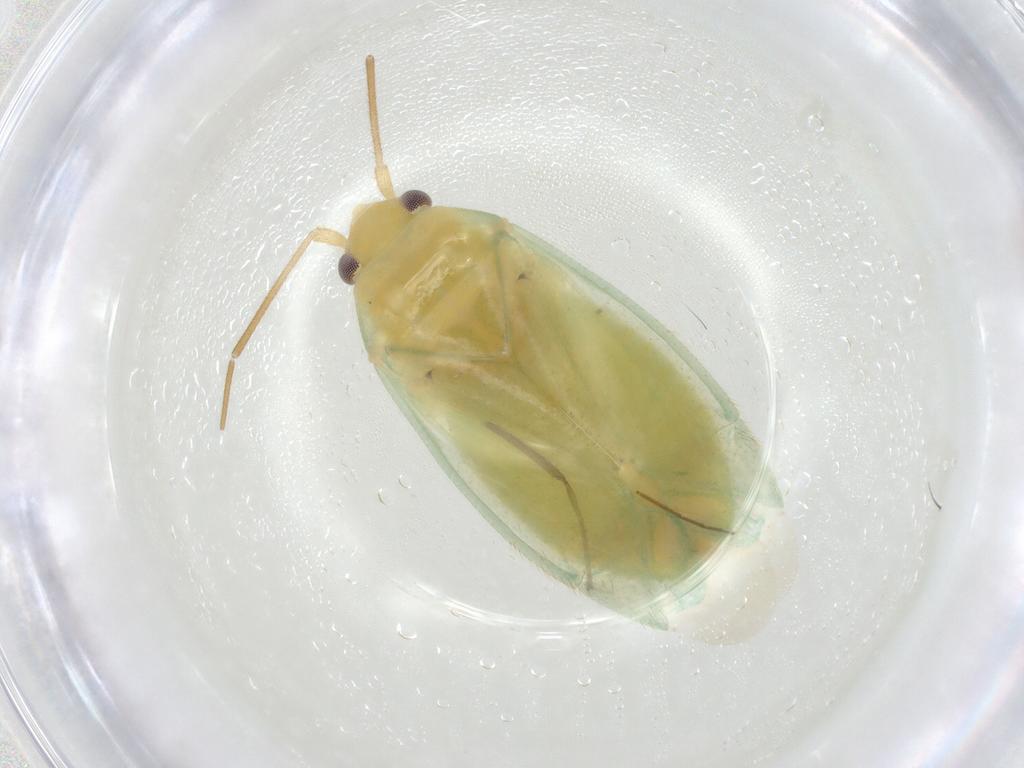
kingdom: Animalia
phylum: Arthropoda
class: Insecta
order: Hemiptera
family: Miridae
